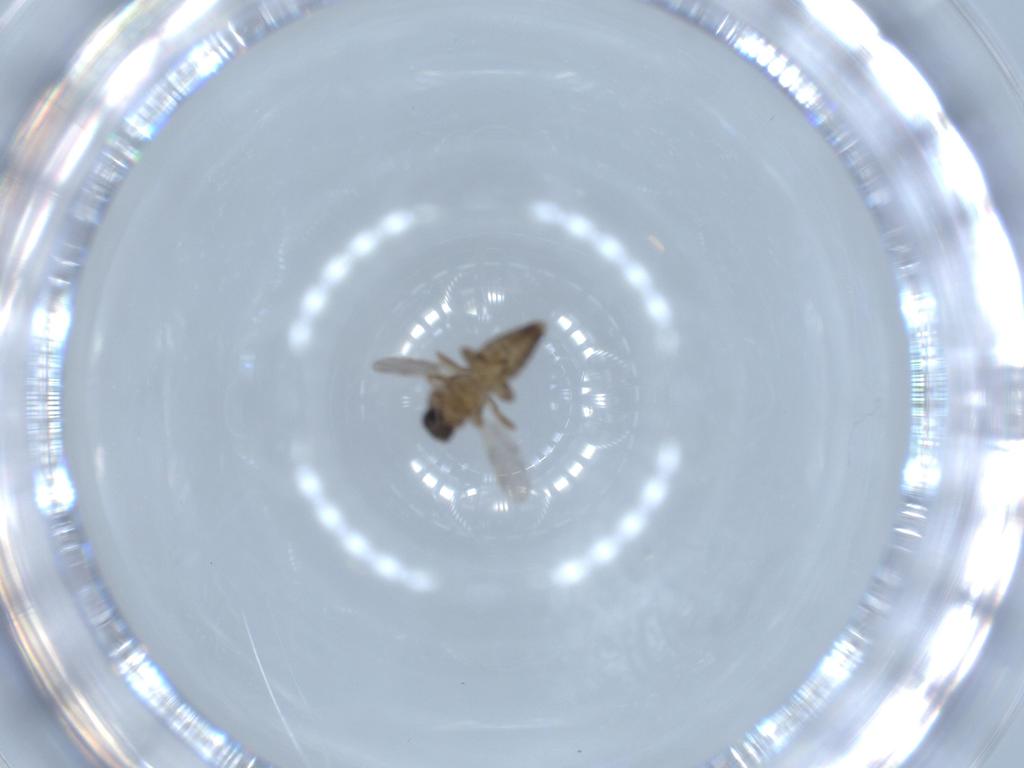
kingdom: Animalia
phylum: Arthropoda
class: Insecta
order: Diptera
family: Ceratopogonidae
